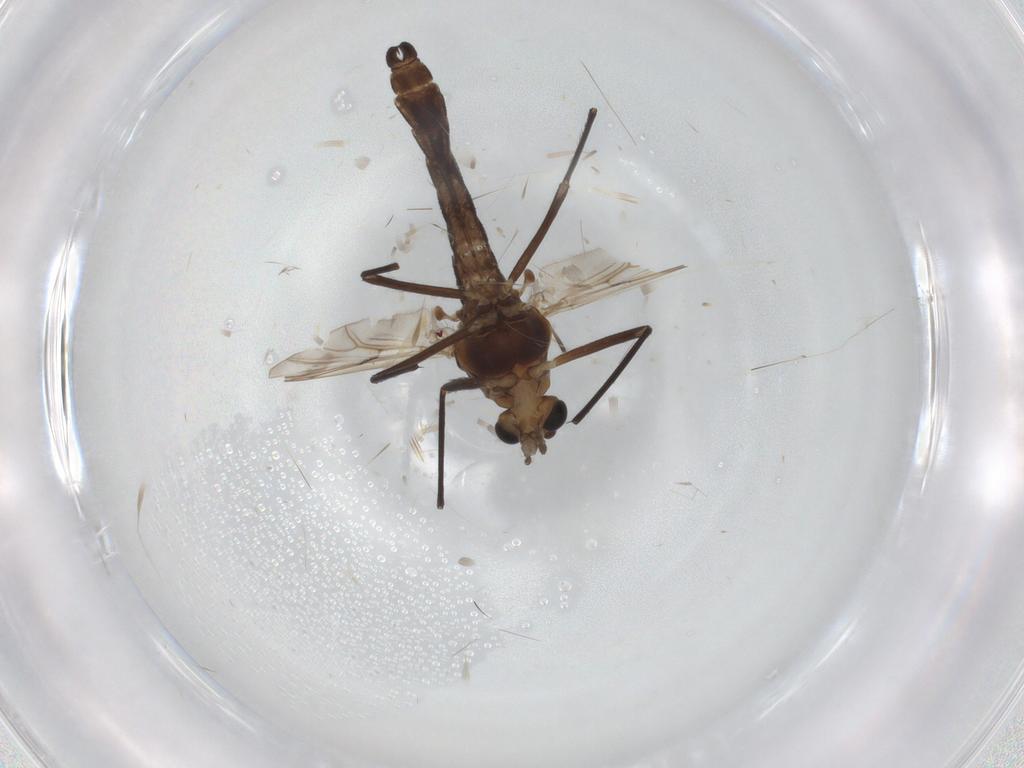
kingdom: Animalia
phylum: Arthropoda
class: Insecta
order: Diptera
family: Chironomidae
